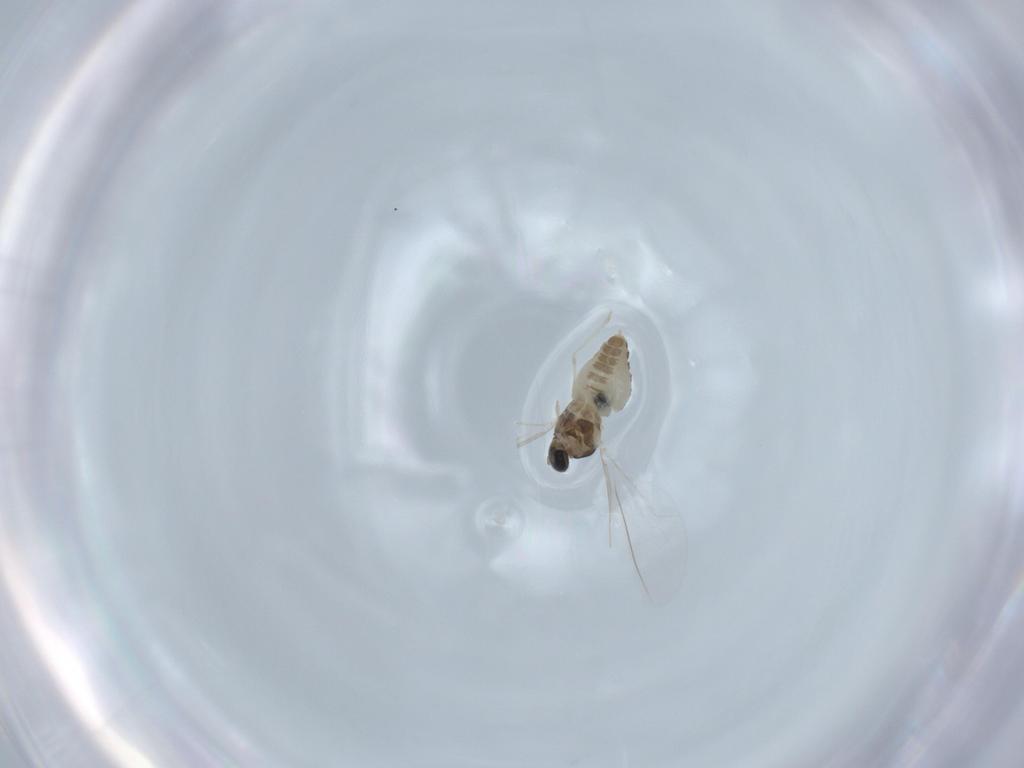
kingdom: Animalia
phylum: Arthropoda
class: Insecta
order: Diptera
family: Cecidomyiidae
